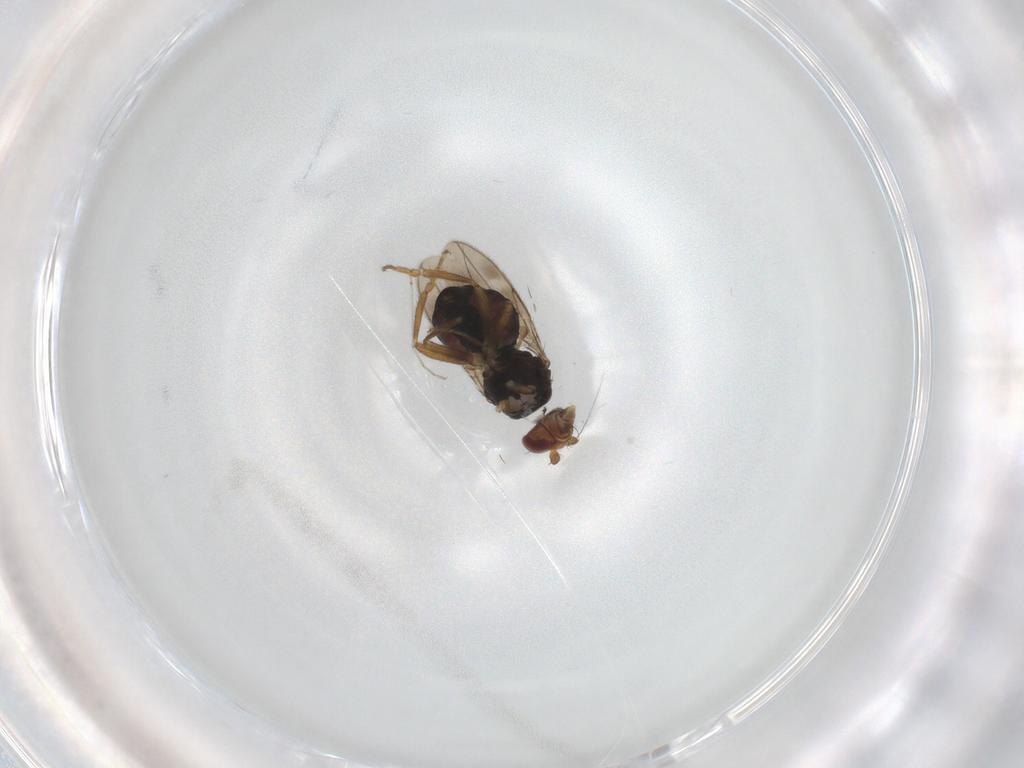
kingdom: Animalia
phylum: Arthropoda
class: Insecta
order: Diptera
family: Sphaeroceridae
